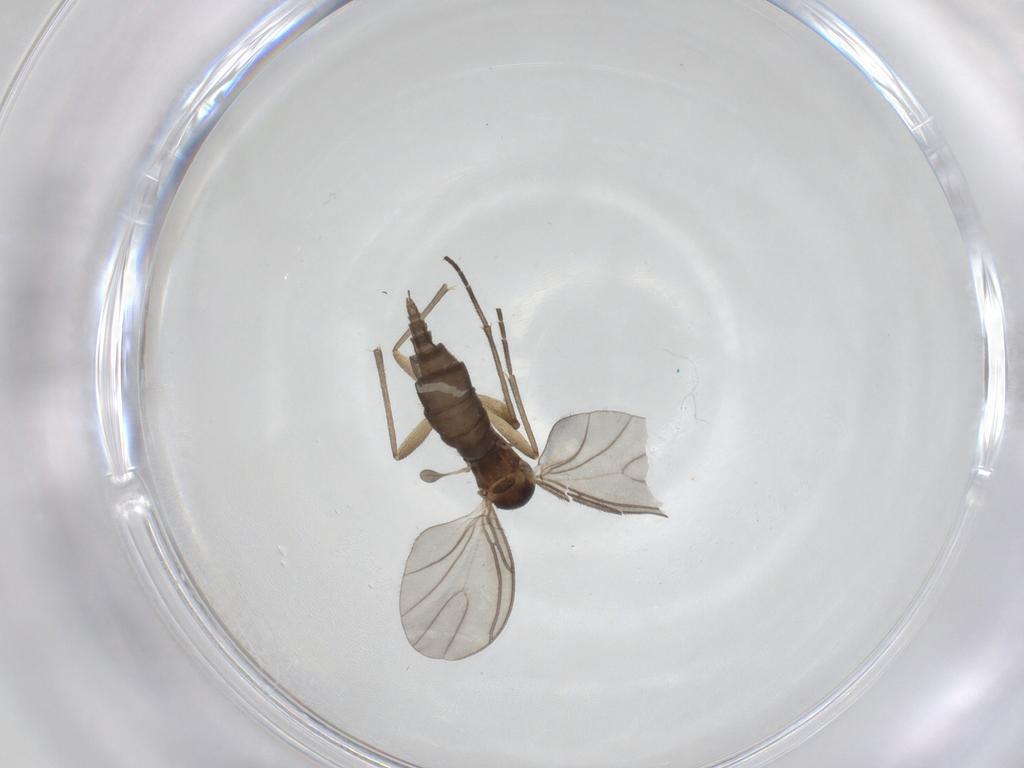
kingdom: Animalia
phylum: Arthropoda
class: Insecta
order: Diptera
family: Sciaridae
